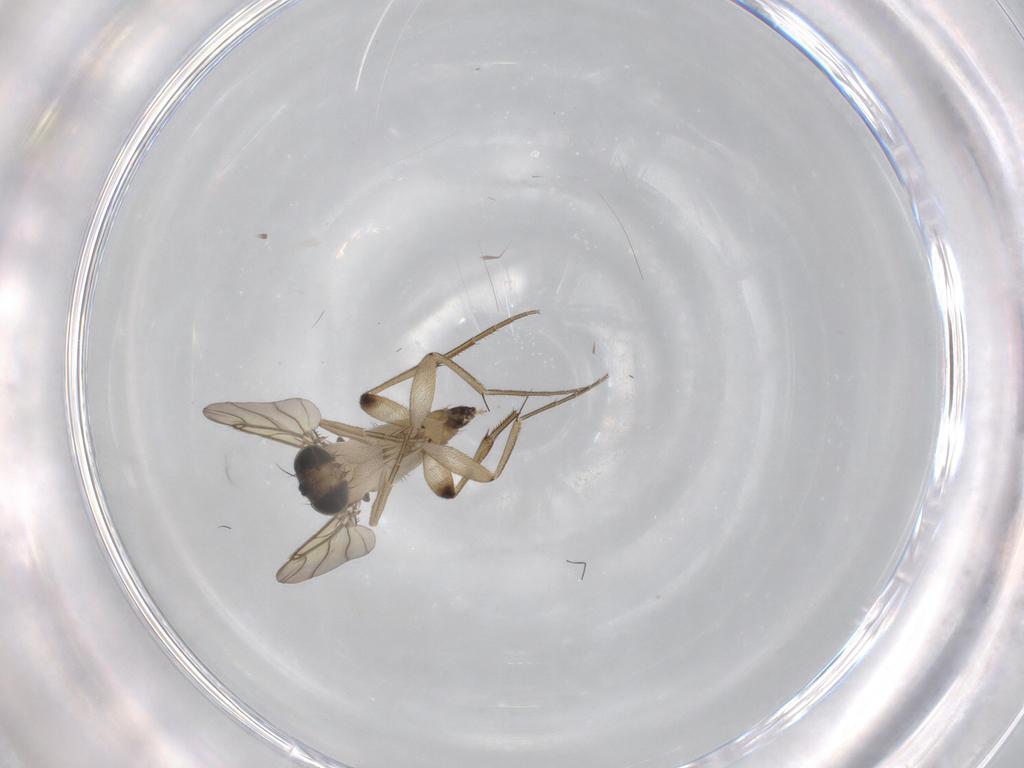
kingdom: Animalia
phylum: Arthropoda
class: Insecta
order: Diptera
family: Phoridae
